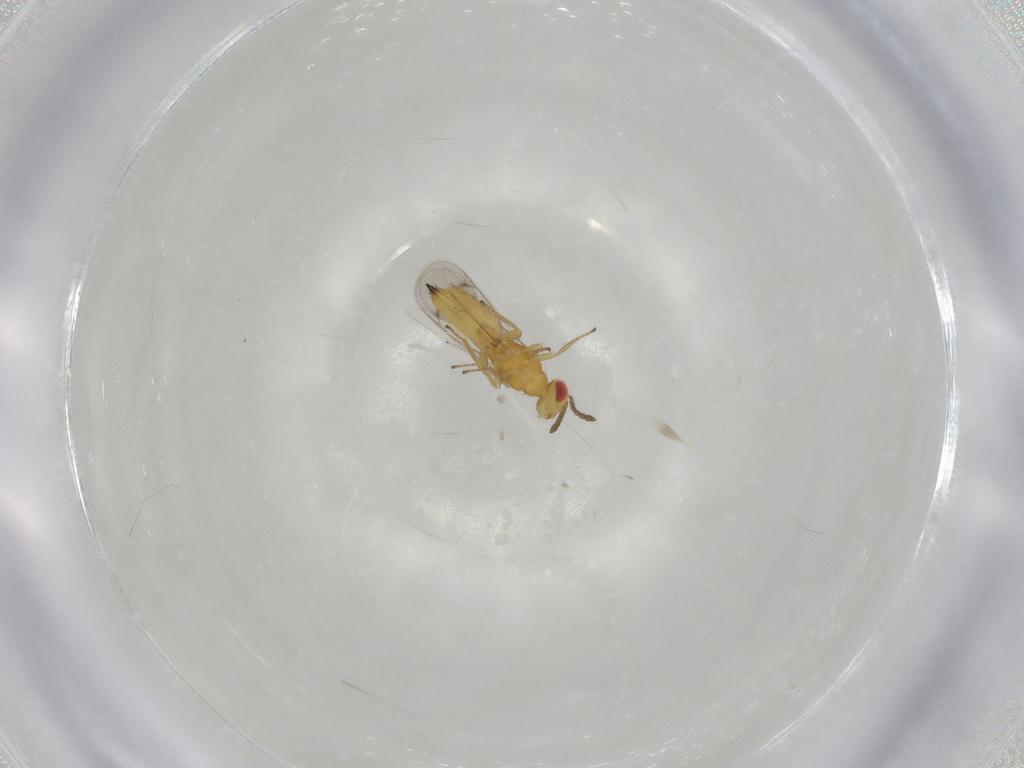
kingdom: Animalia
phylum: Arthropoda
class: Insecta
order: Hymenoptera
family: Eulophidae
